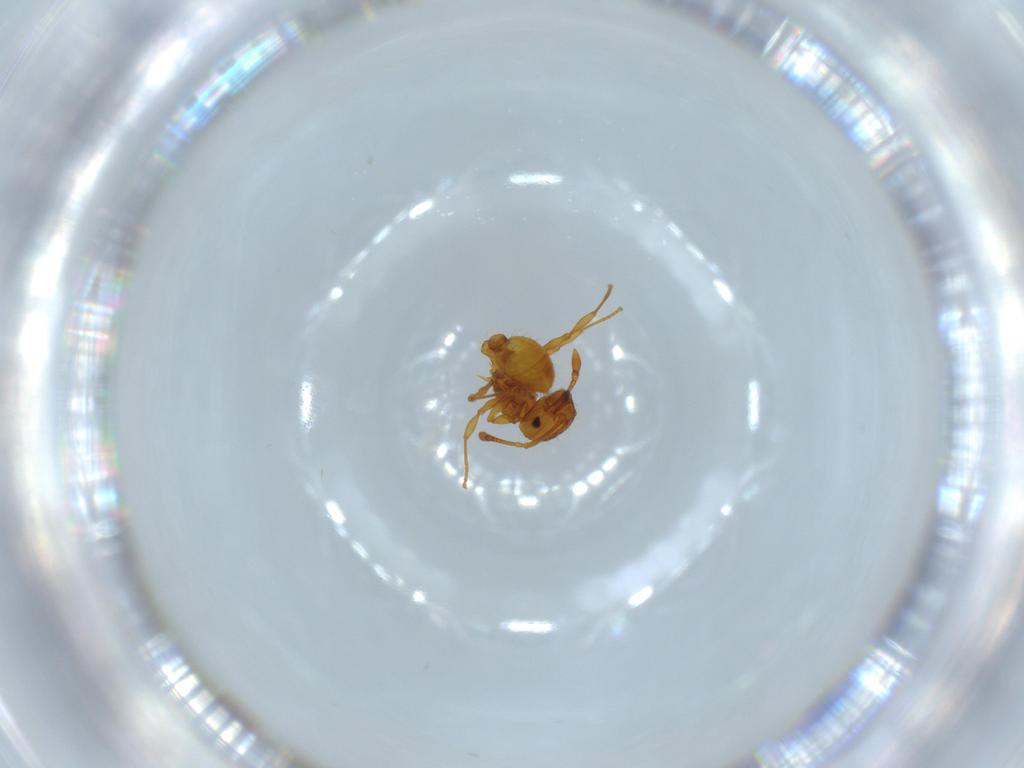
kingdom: Animalia
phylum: Arthropoda
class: Insecta
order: Hymenoptera
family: Formicidae
